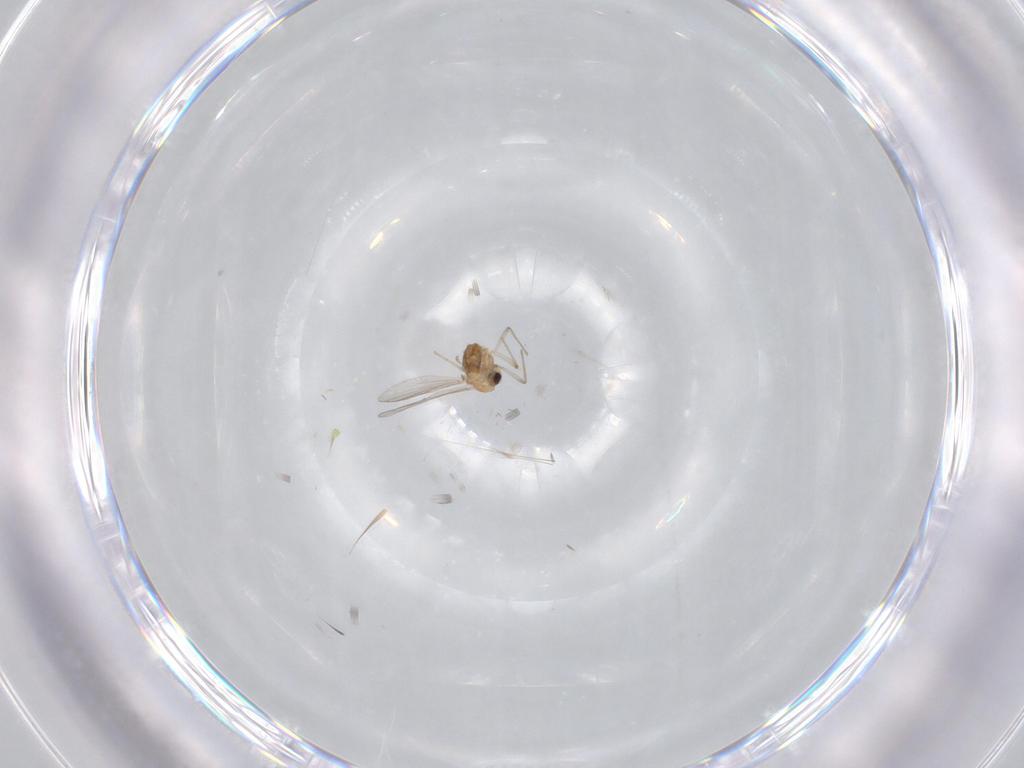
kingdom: Animalia
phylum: Arthropoda
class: Insecta
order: Diptera
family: Chironomidae
